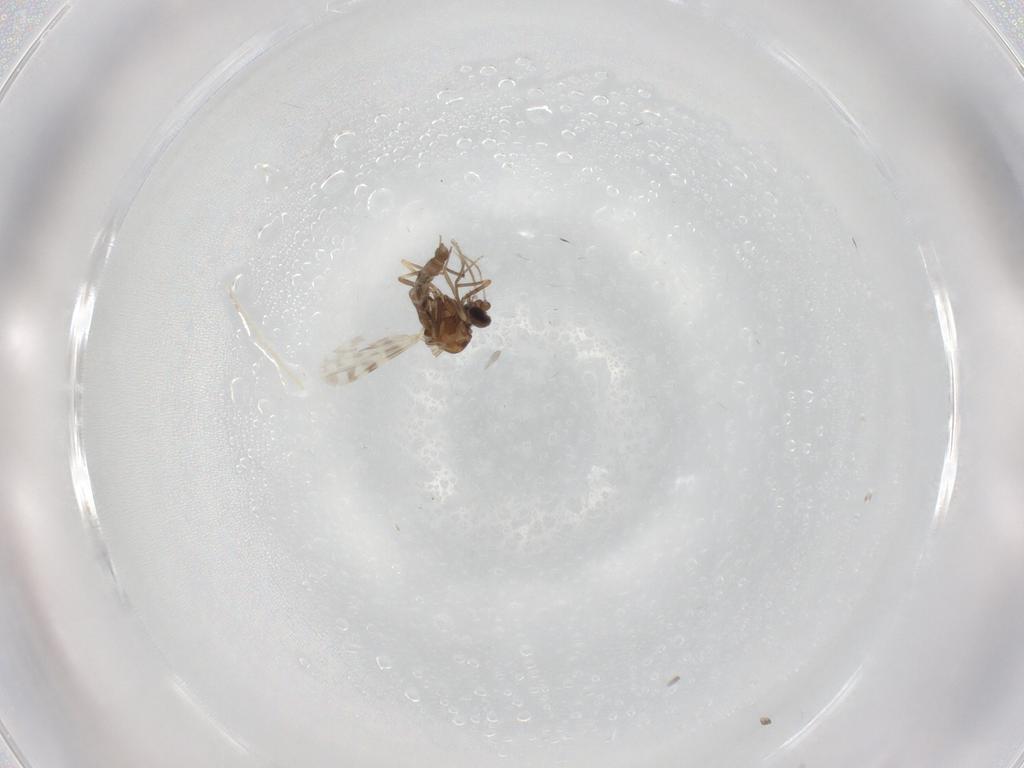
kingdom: Animalia
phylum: Arthropoda
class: Insecta
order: Diptera
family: Ceratopogonidae
